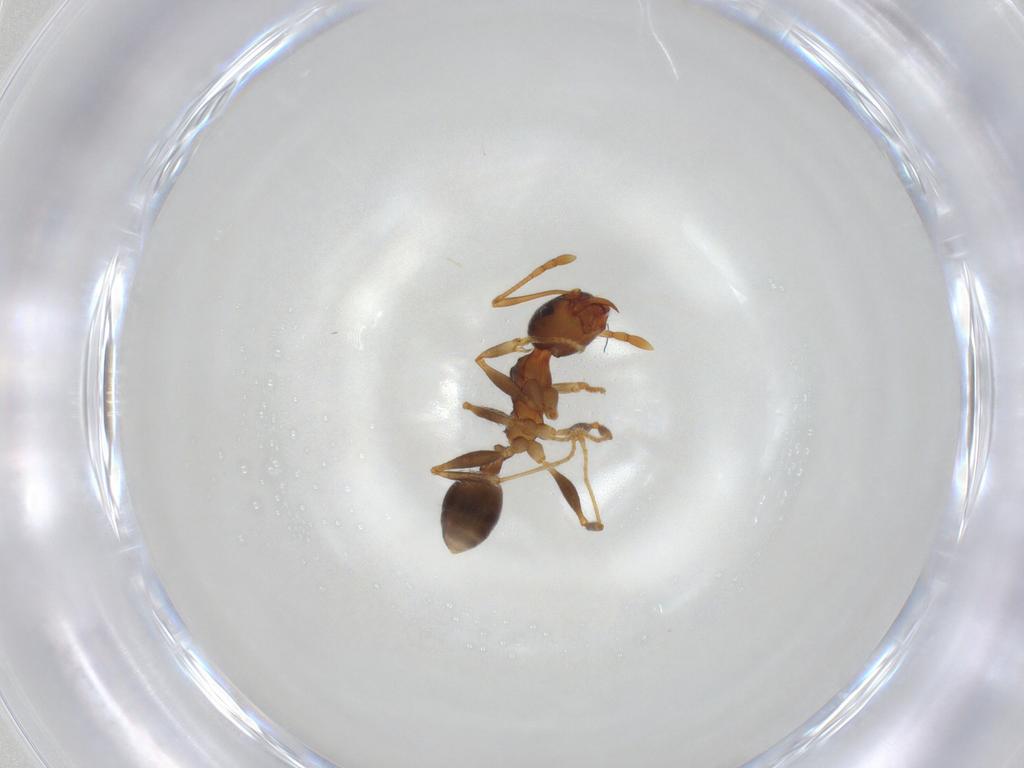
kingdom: Animalia
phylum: Arthropoda
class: Insecta
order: Hymenoptera
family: Formicidae
